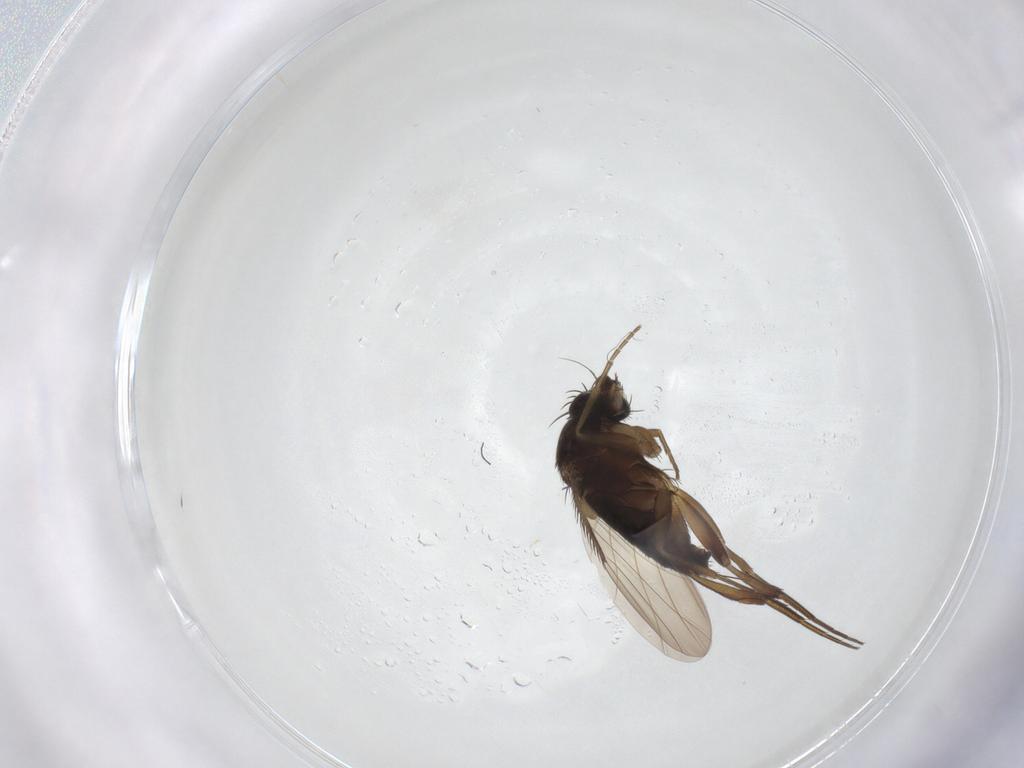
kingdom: Animalia
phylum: Arthropoda
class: Insecta
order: Diptera
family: Phoridae
